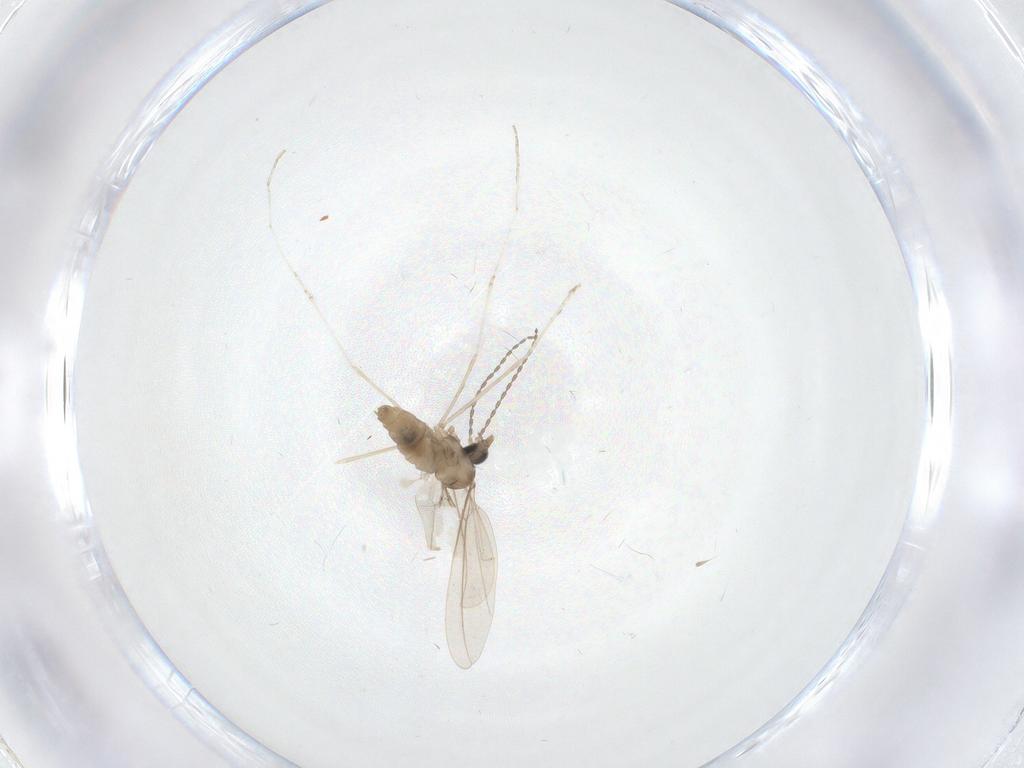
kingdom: Animalia
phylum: Arthropoda
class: Insecta
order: Diptera
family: Cecidomyiidae
